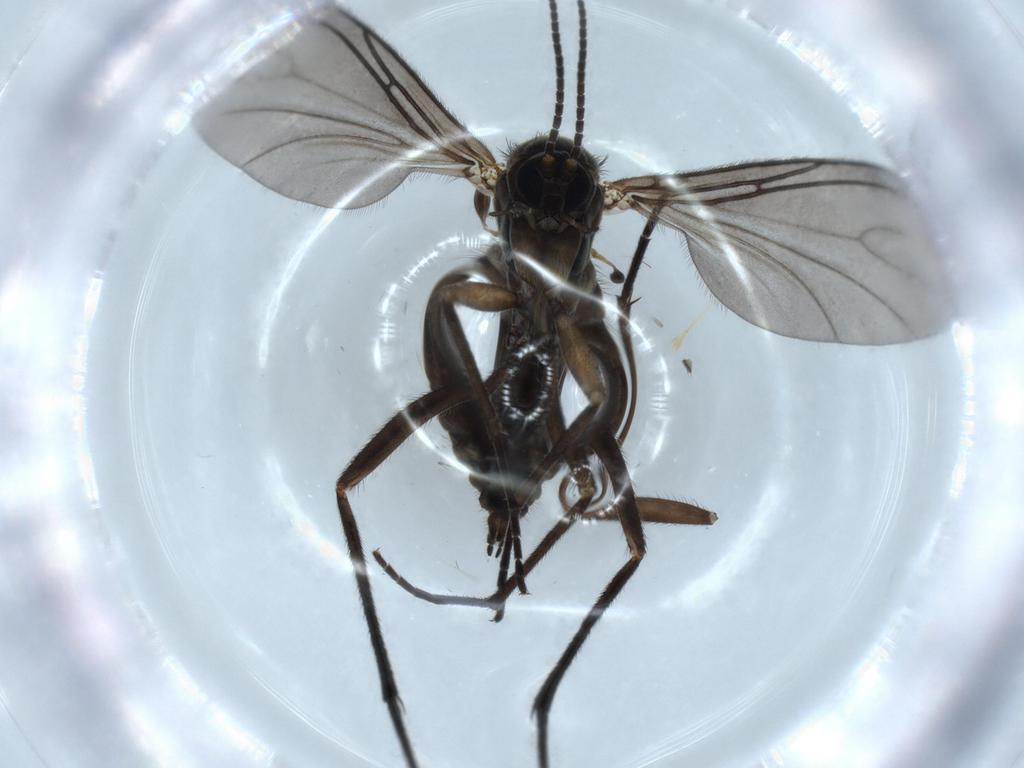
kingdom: Animalia
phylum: Arthropoda
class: Insecta
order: Diptera
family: Sciaridae
